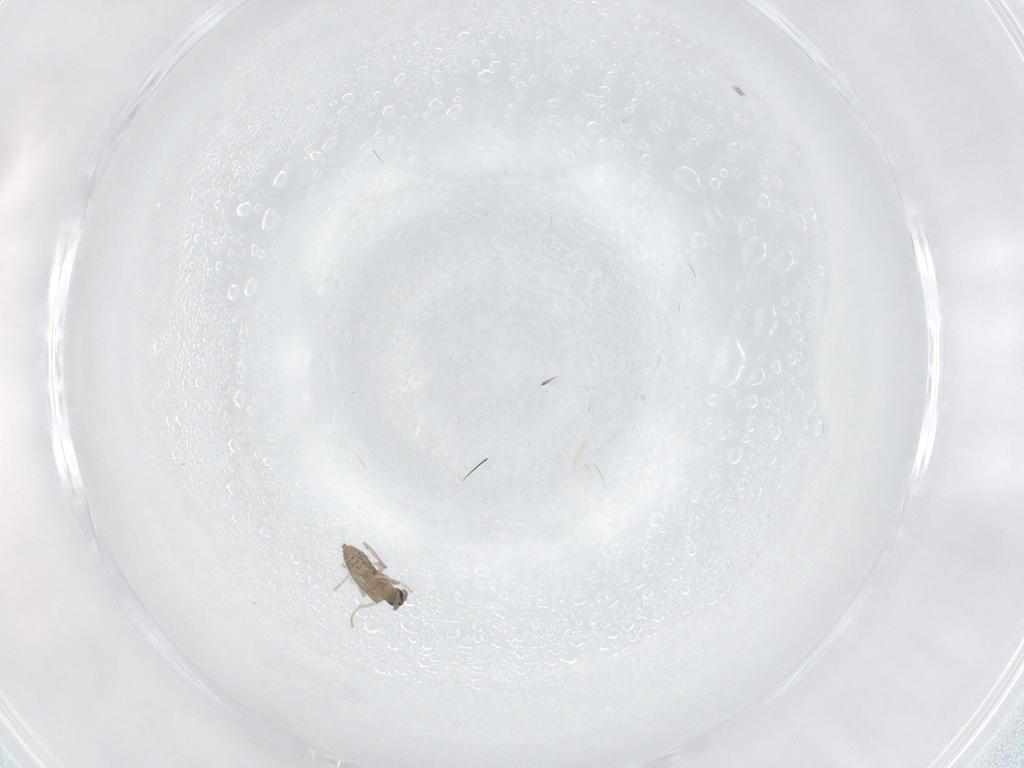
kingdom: Animalia
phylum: Arthropoda
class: Insecta
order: Diptera
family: Cecidomyiidae
